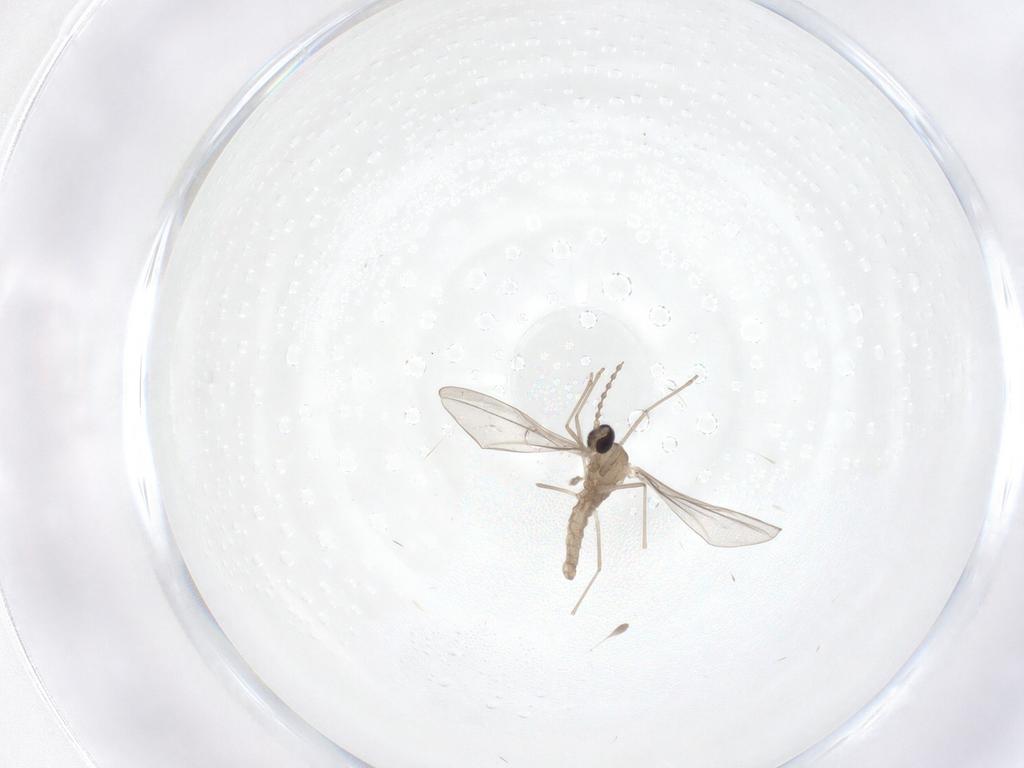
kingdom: Animalia
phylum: Arthropoda
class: Insecta
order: Diptera
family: Cecidomyiidae
